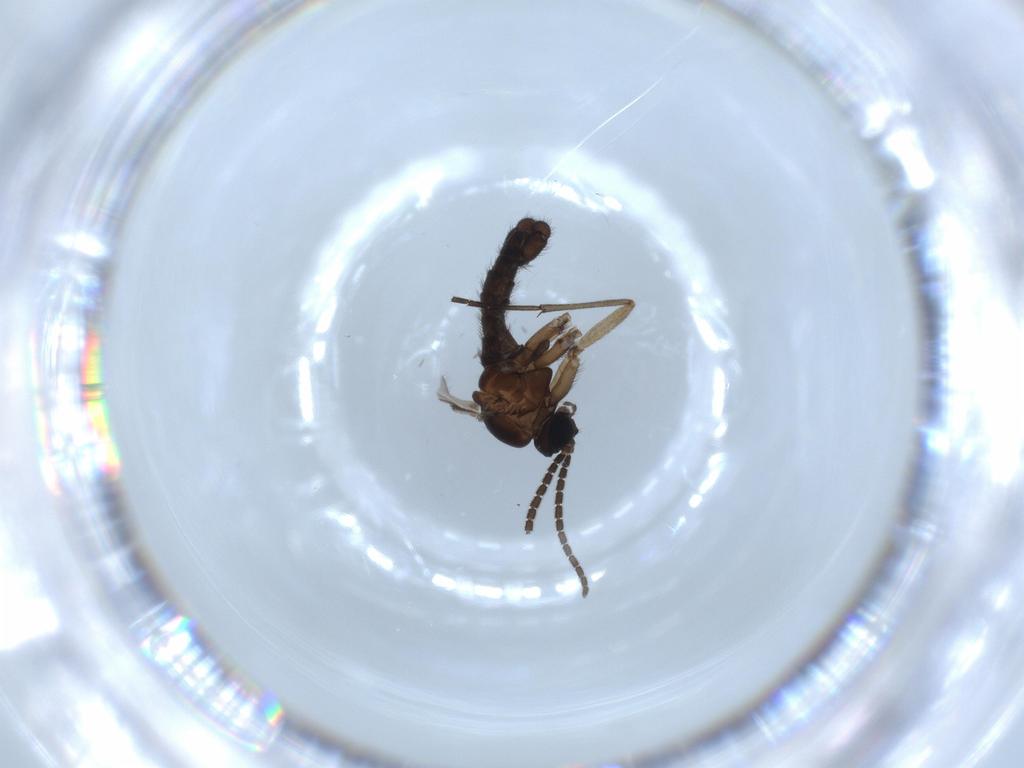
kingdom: Animalia
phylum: Arthropoda
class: Insecta
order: Diptera
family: Sciaridae
